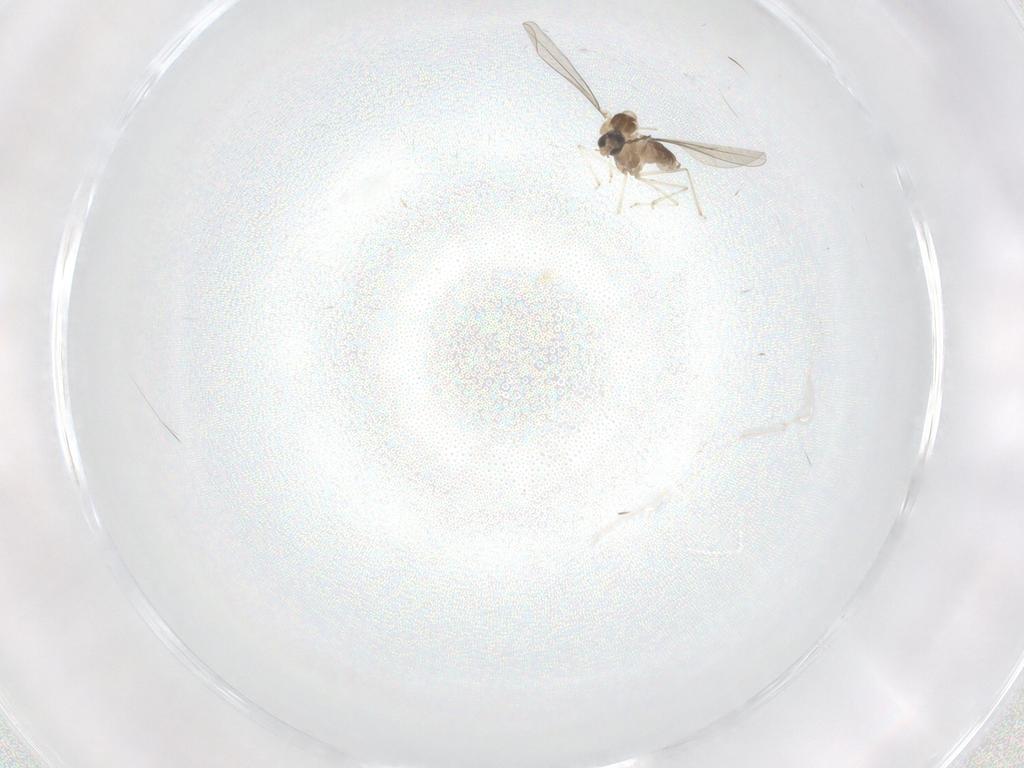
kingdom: Animalia
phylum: Arthropoda
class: Insecta
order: Diptera
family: Cecidomyiidae
